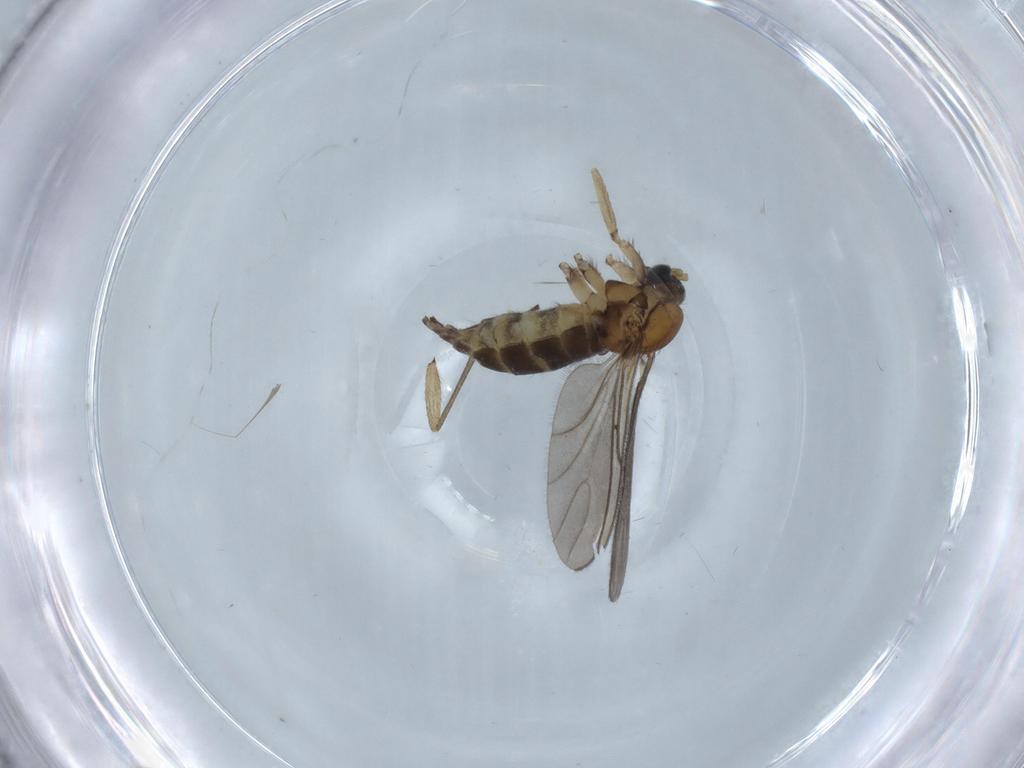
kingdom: Animalia
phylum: Arthropoda
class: Insecta
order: Diptera
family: Sciaridae
